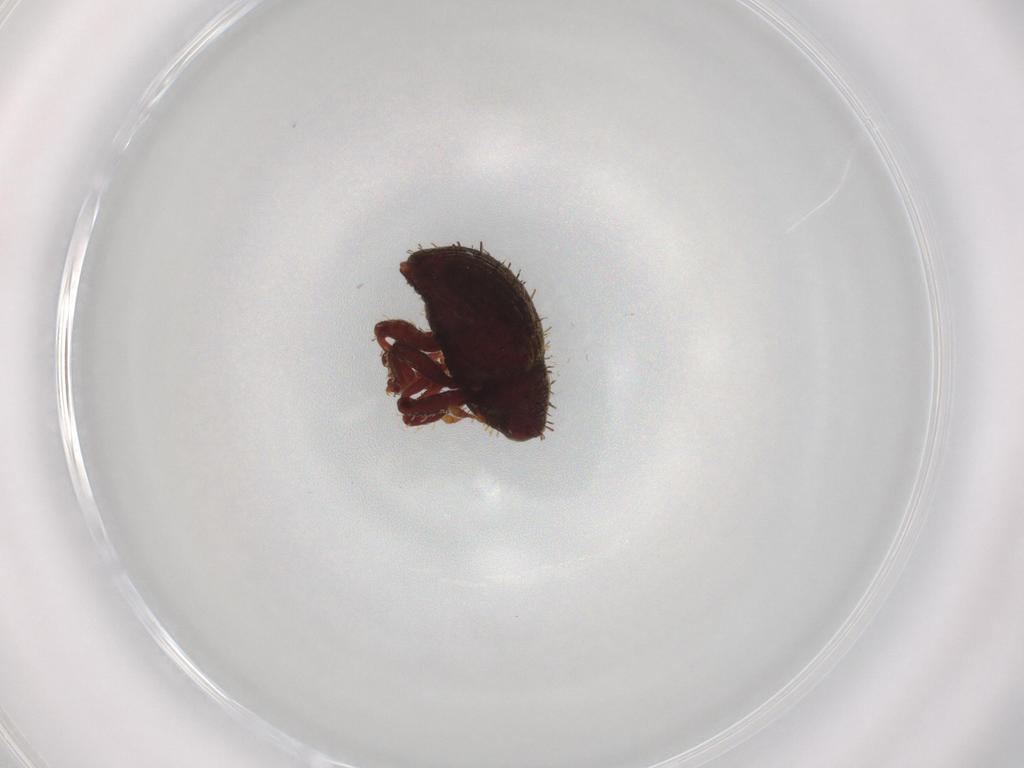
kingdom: Animalia
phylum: Arthropoda
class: Insecta
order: Coleoptera
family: Curculionidae
